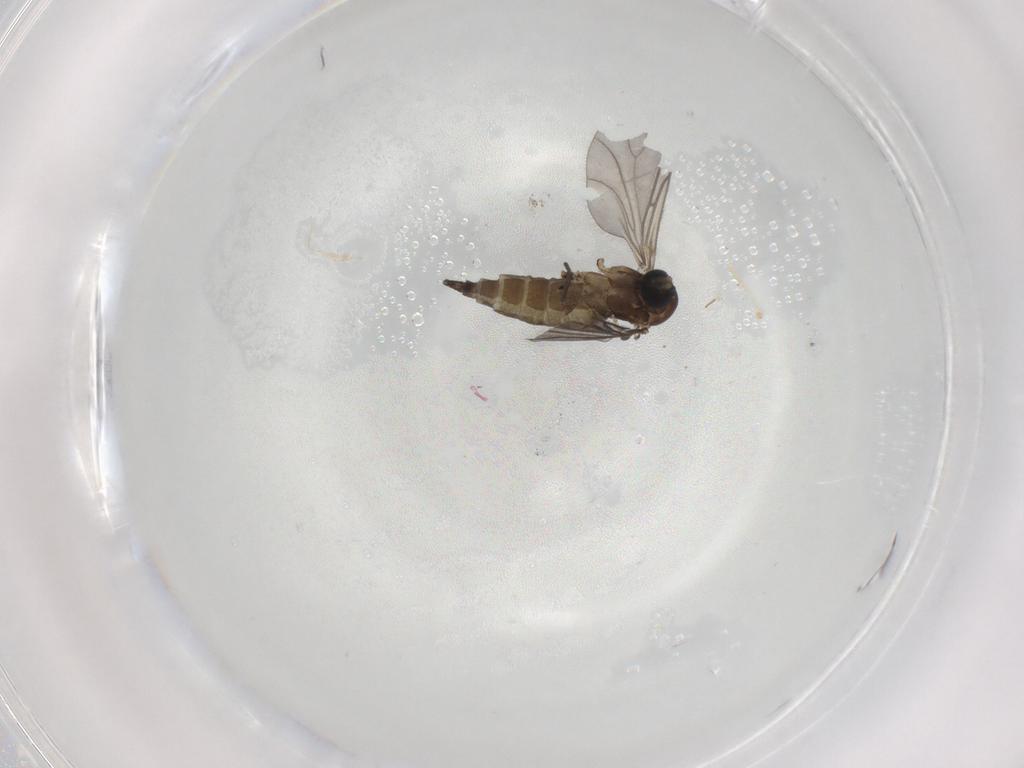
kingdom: Animalia
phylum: Arthropoda
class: Insecta
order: Diptera
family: Sciaridae
